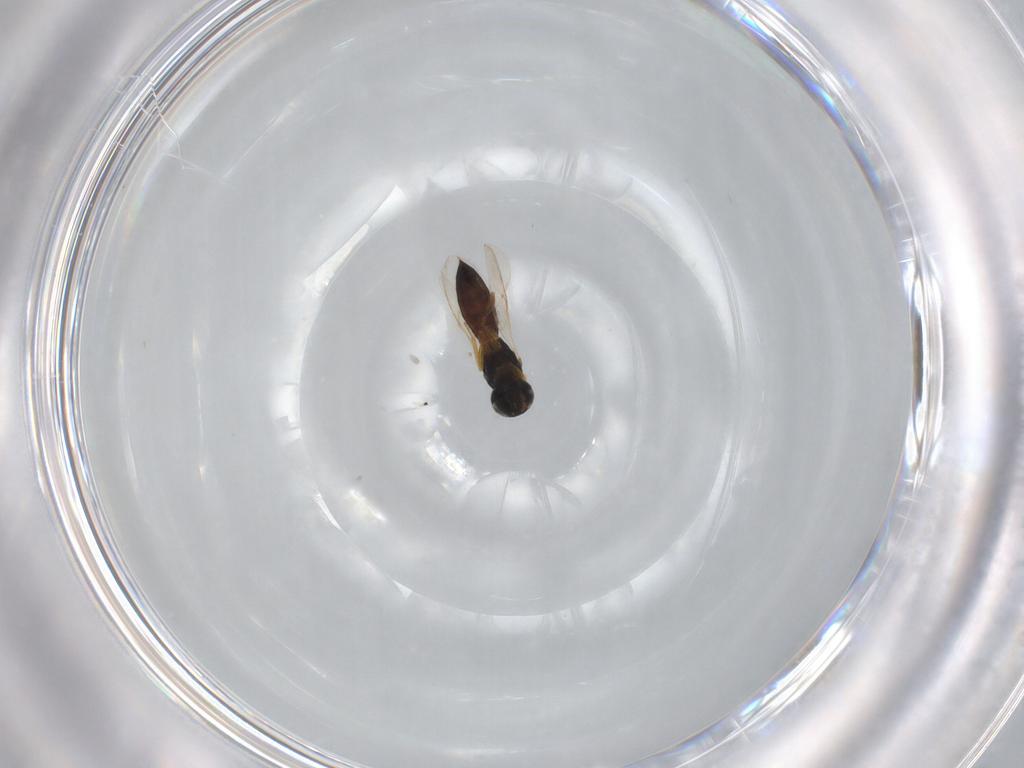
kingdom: Animalia
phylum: Arthropoda
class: Insecta
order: Hymenoptera
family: Scelionidae
